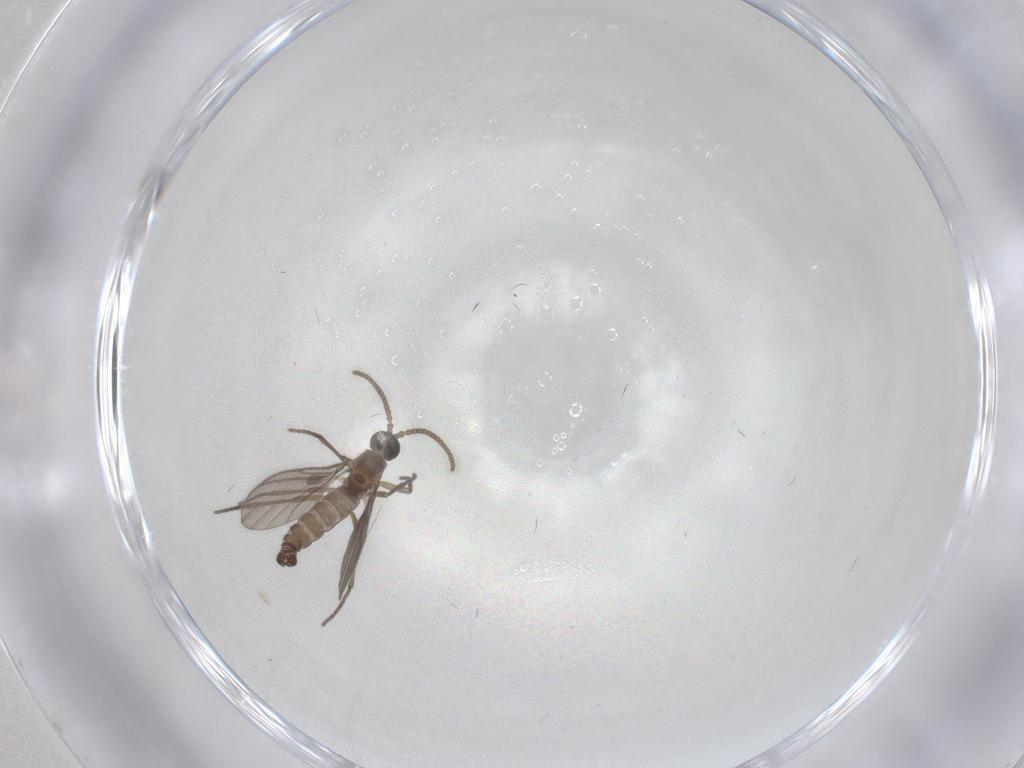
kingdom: Animalia
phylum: Arthropoda
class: Insecta
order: Diptera
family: Sciaridae
